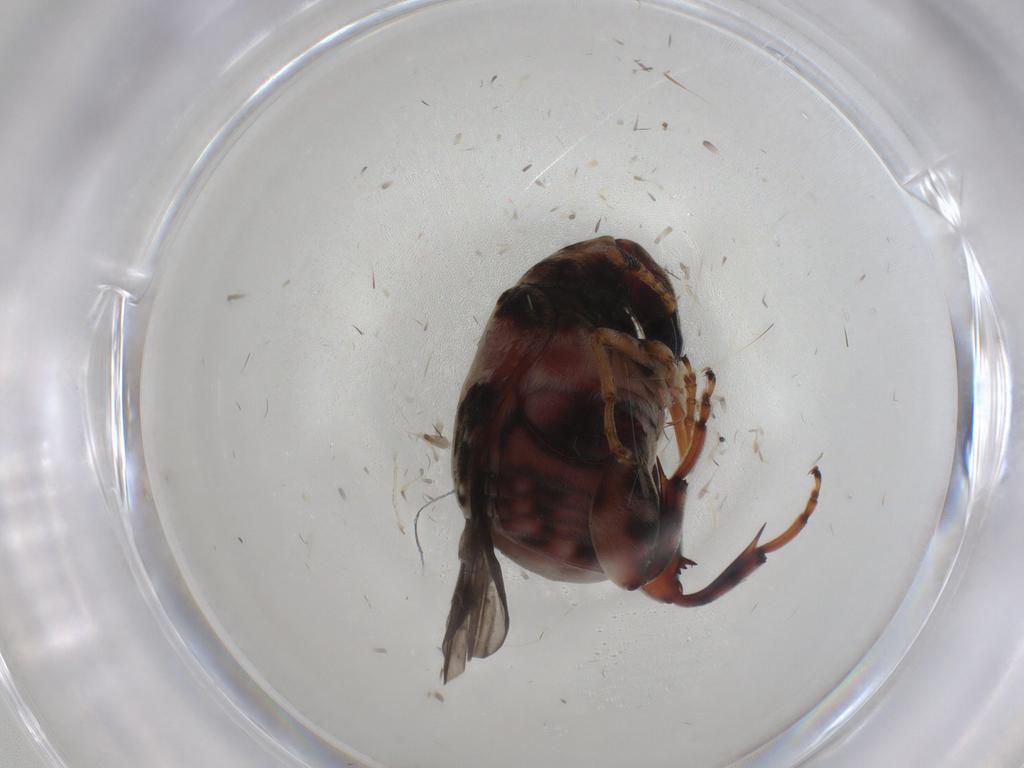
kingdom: Animalia
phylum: Arthropoda
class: Insecta
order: Coleoptera
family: Chrysomelidae
